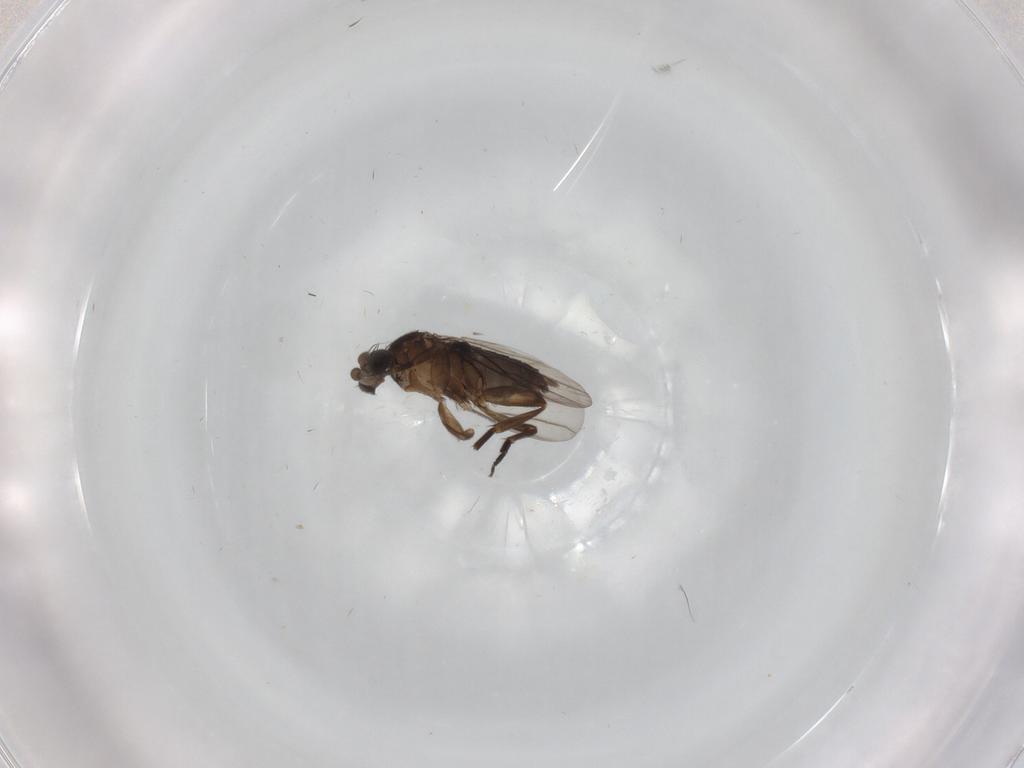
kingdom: Animalia
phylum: Arthropoda
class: Insecta
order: Diptera
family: Phoridae
